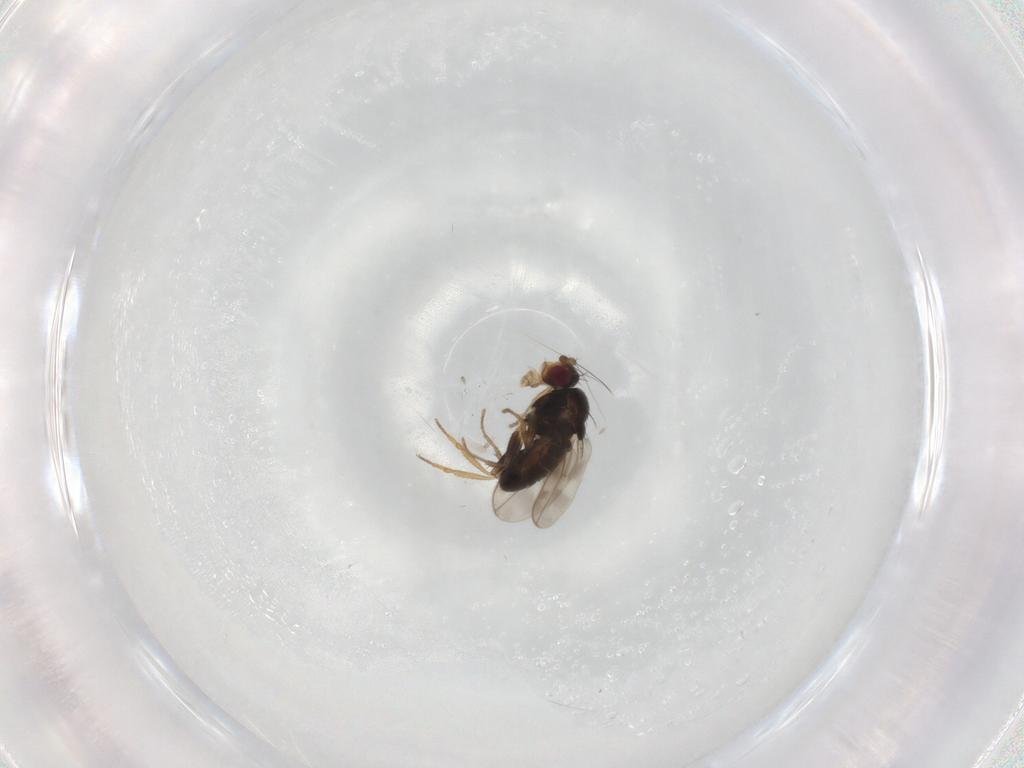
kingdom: Animalia
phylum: Arthropoda
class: Insecta
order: Diptera
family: Sphaeroceridae
